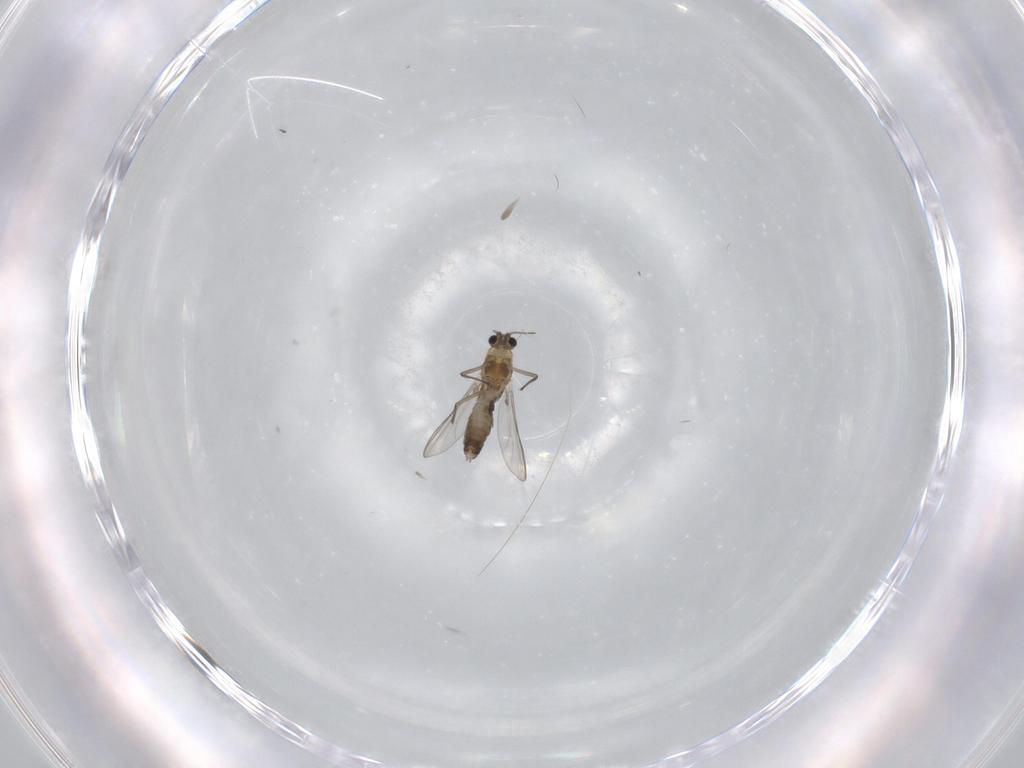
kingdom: Animalia
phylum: Arthropoda
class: Insecta
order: Diptera
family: Chironomidae
